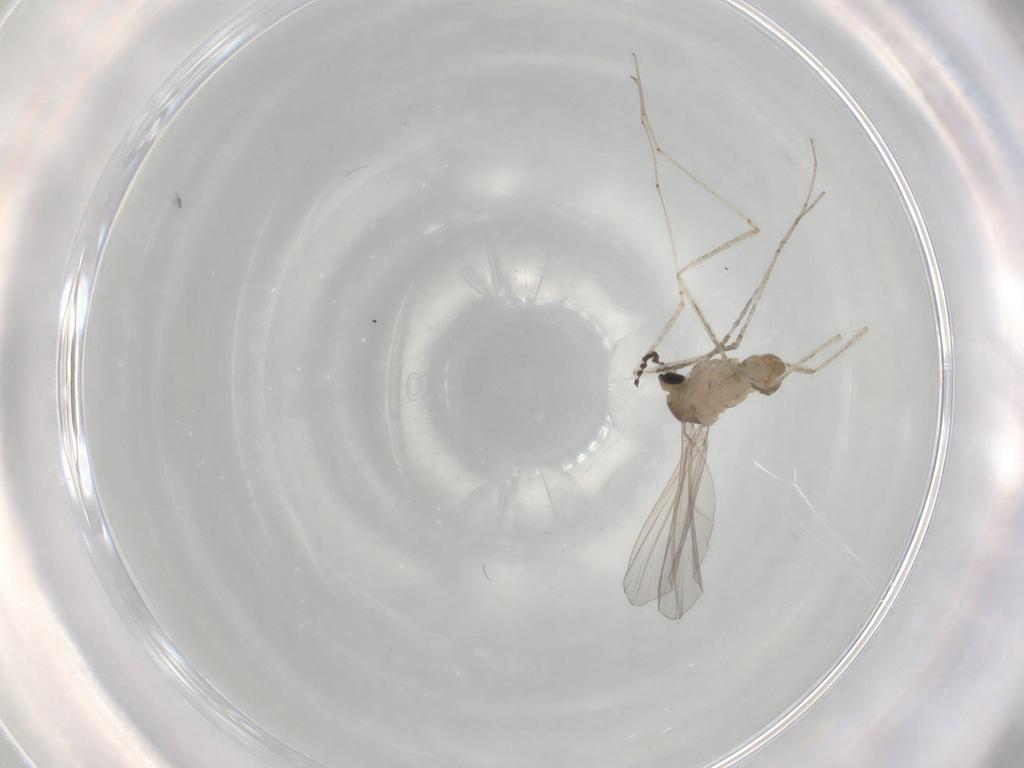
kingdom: Animalia
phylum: Arthropoda
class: Insecta
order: Diptera
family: Cecidomyiidae
